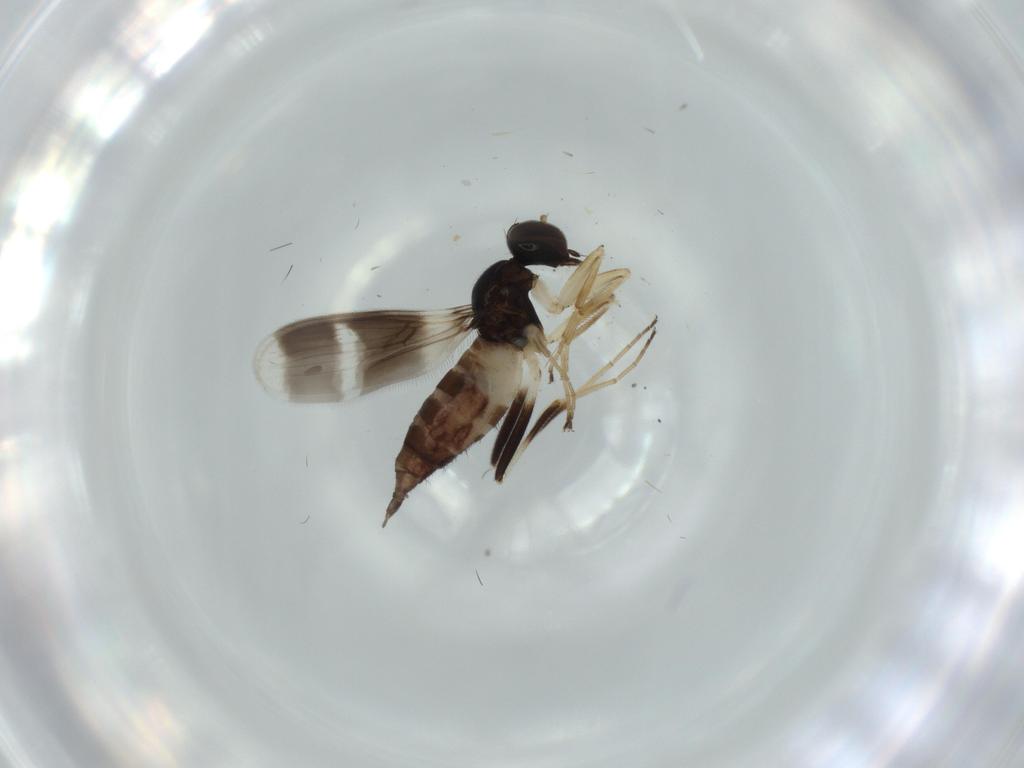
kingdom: Animalia
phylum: Arthropoda
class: Insecta
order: Diptera
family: Hybotidae
